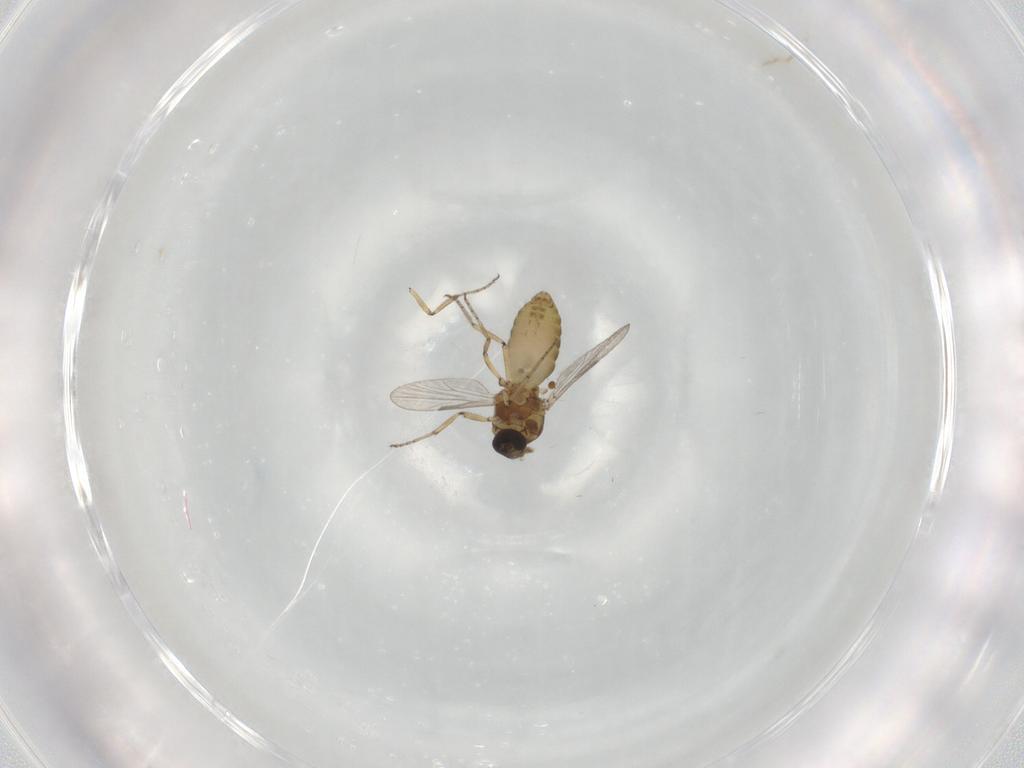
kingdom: Animalia
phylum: Arthropoda
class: Insecta
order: Diptera
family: Ceratopogonidae
